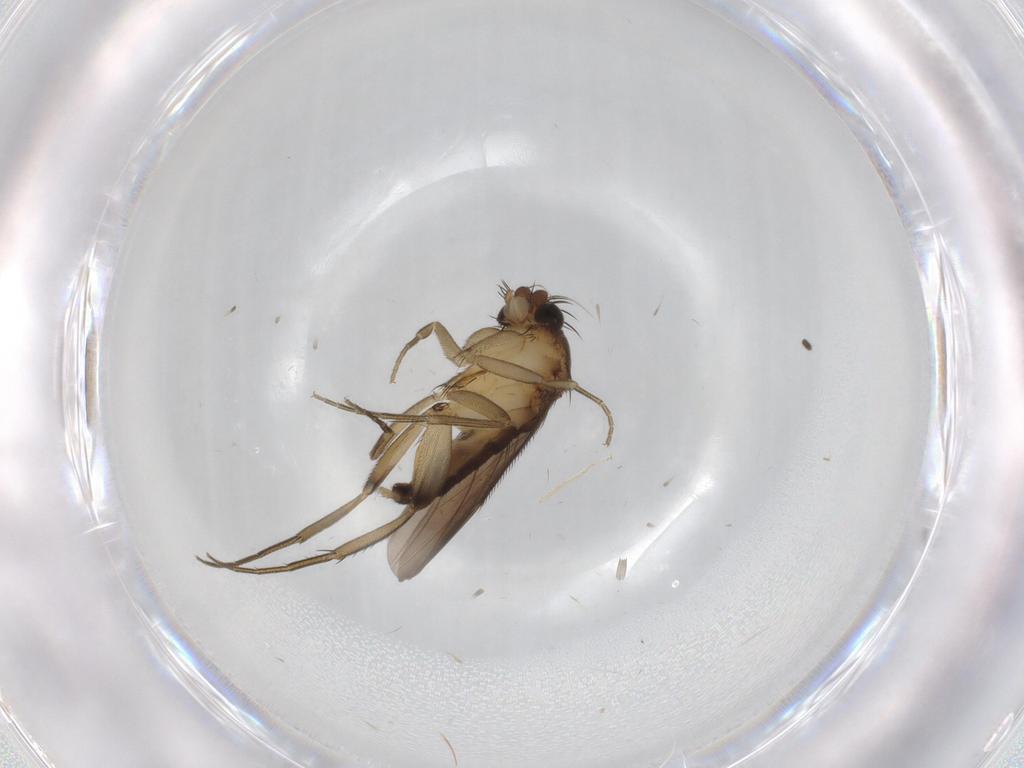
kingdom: Animalia
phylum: Arthropoda
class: Insecta
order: Diptera
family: Phoridae
